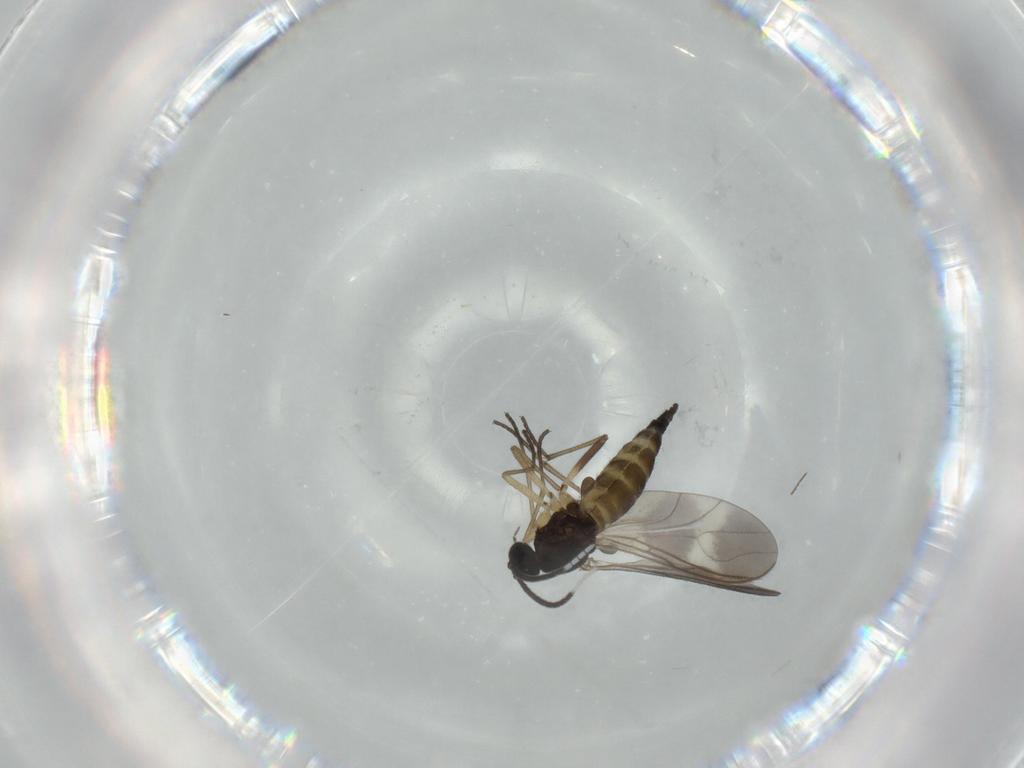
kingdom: Animalia
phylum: Arthropoda
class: Insecta
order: Diptera
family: Sciaridae
